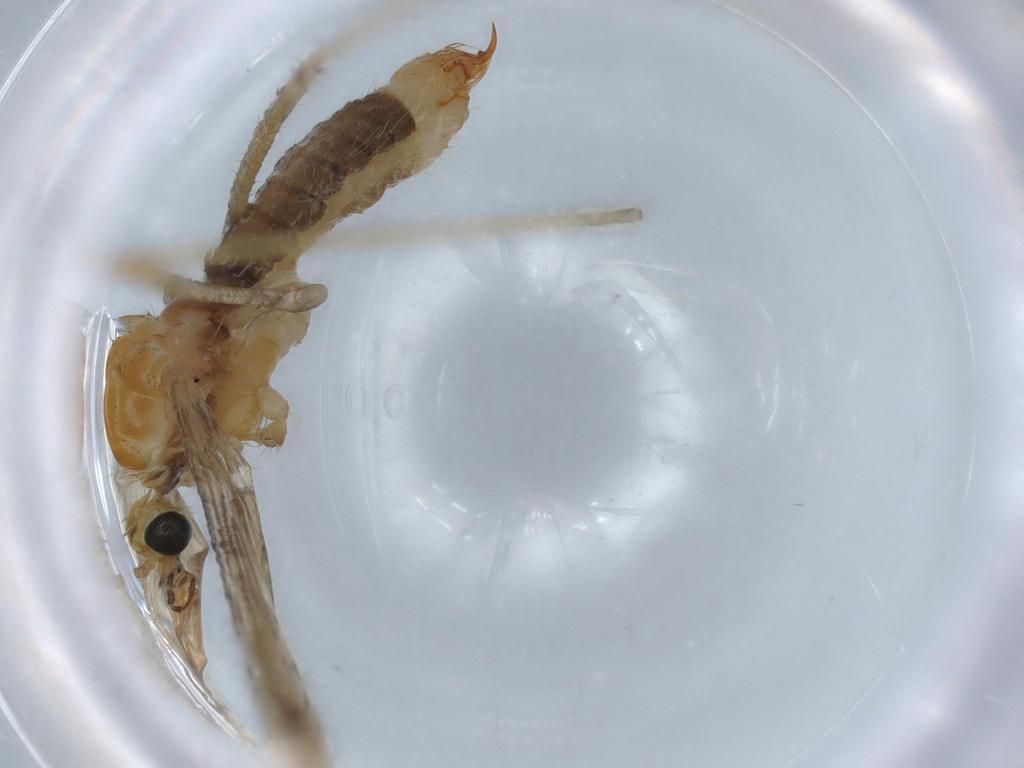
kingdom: Animalia
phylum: Arthropoda
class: Insecta
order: Diptera
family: Limoniidae
